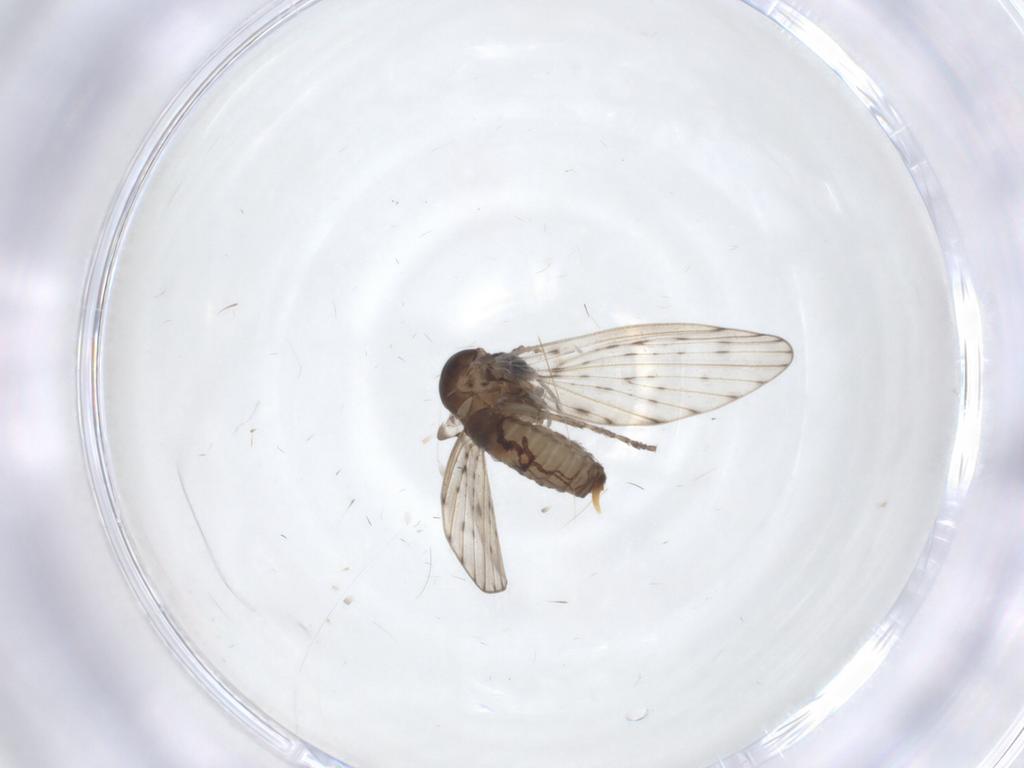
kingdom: Animalia
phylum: Arthropoda
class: Insecta
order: Diptera
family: Psychodidae
